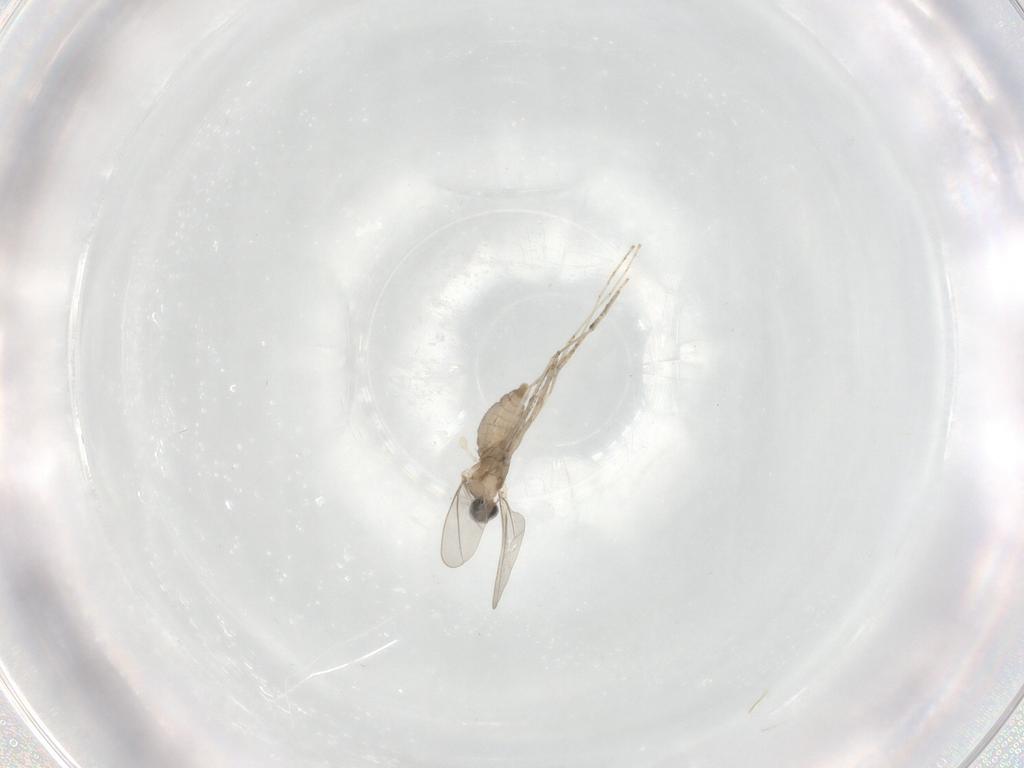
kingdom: Animalia
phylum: Arthropoda
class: Insecta
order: Diptera
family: Cecidomyiidae
